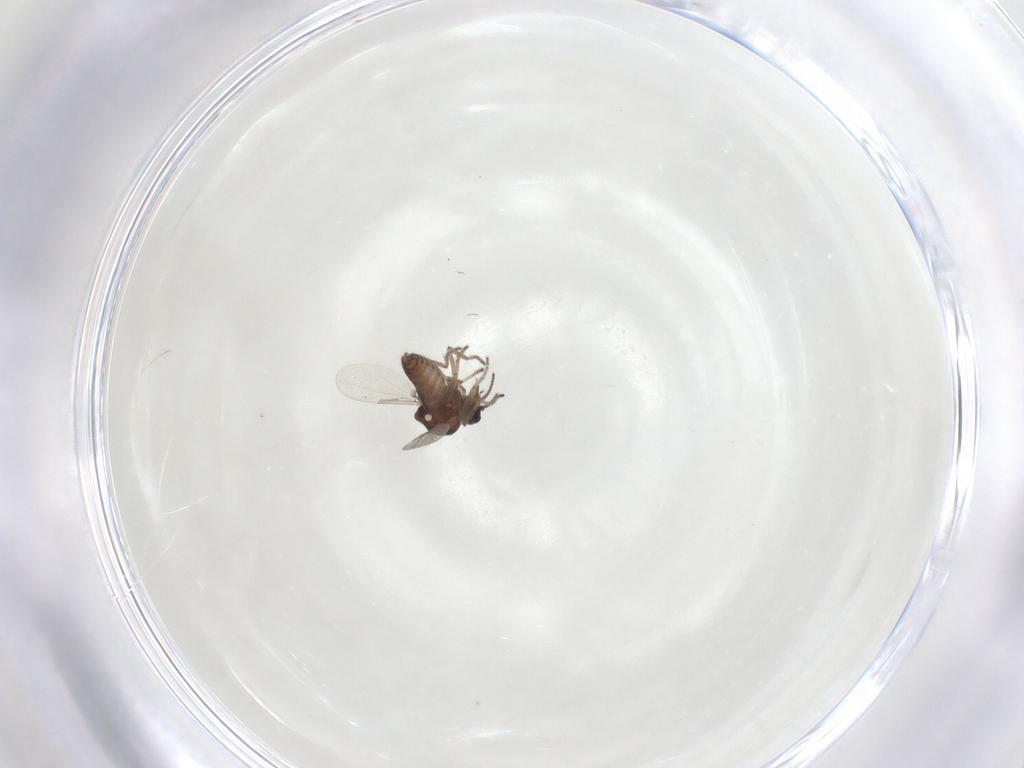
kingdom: Animalia
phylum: Arthropoda
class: Insecta
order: Diptera
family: Ceratopogonidae
